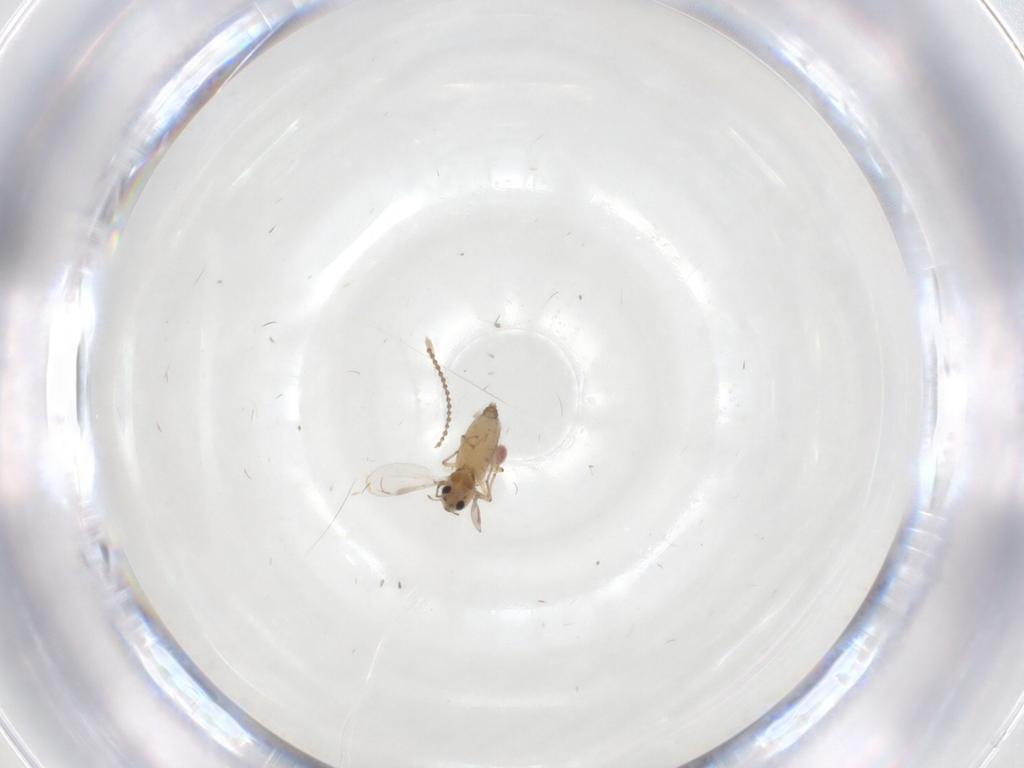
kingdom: Animalia
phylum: Arthropoda
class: Insecta
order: Diptera
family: Chironomidae
